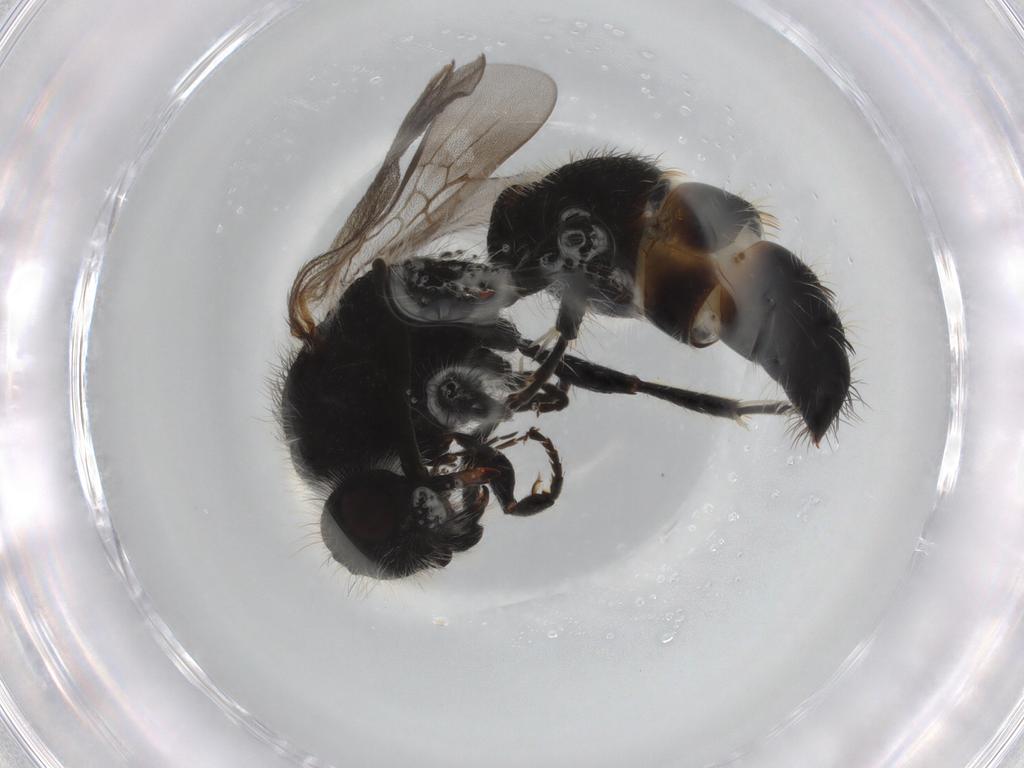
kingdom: Animalia
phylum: Arthropoda
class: Insecta
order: Hymenoptera
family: Mutillidae
